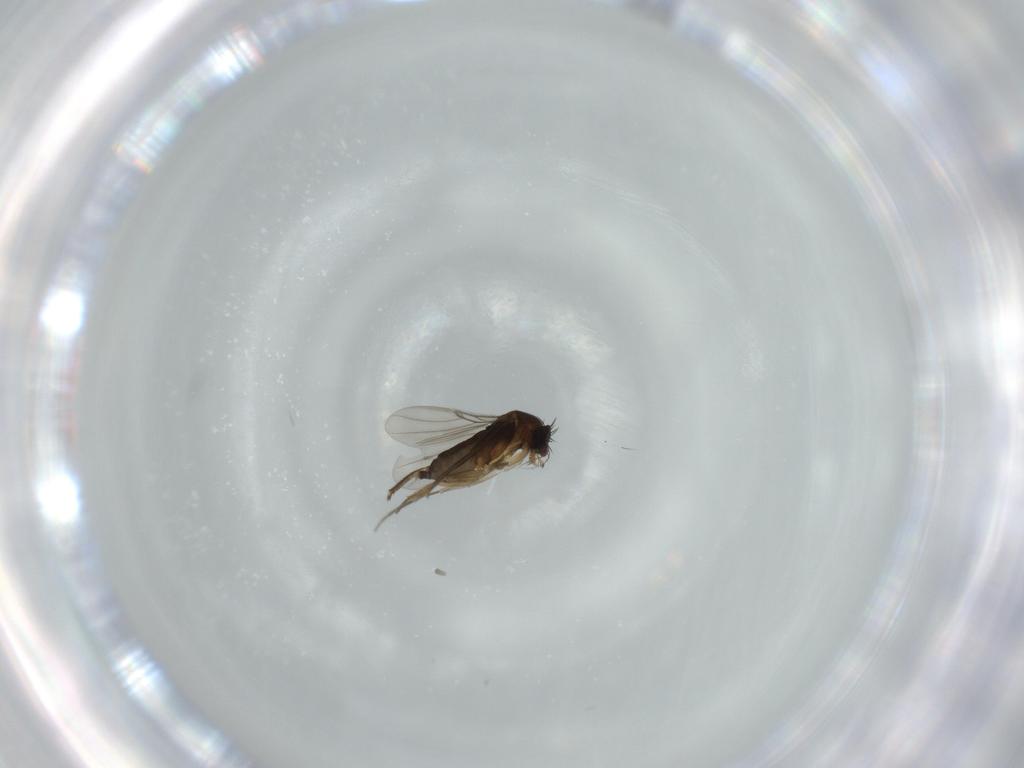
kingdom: Animalia
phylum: Arthropoda
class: Insecta
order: Diptera
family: Phoridae
